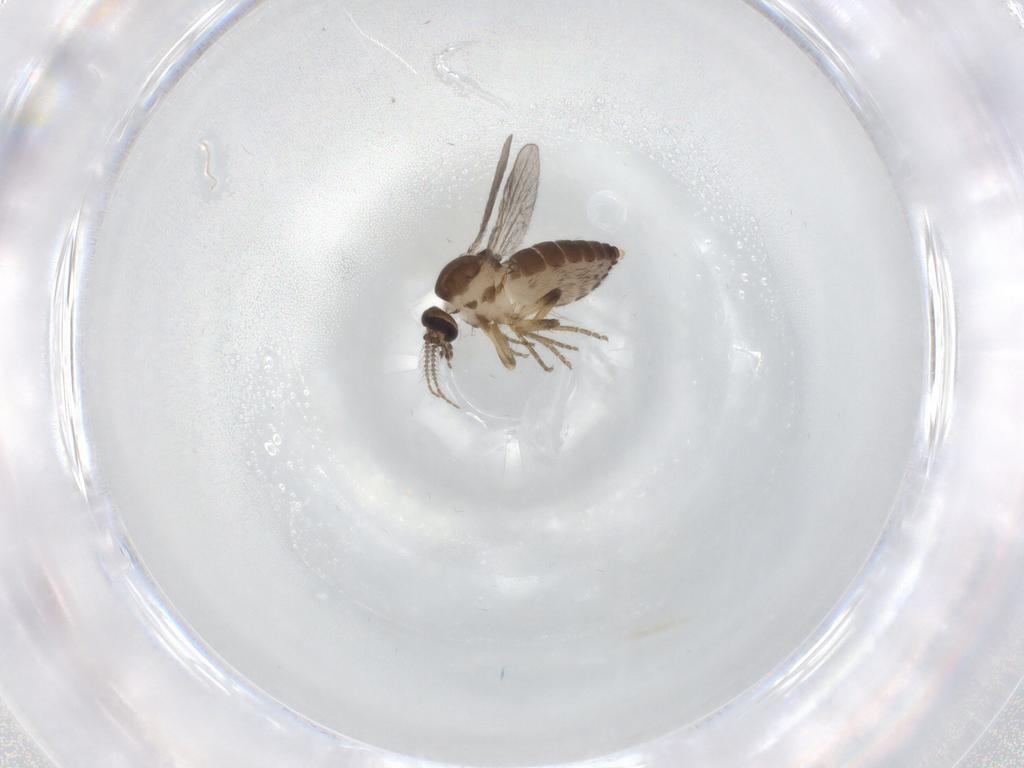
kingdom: Animalia
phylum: Arthropoda
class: Insecta
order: Diptera
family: Ceratopogonidae
